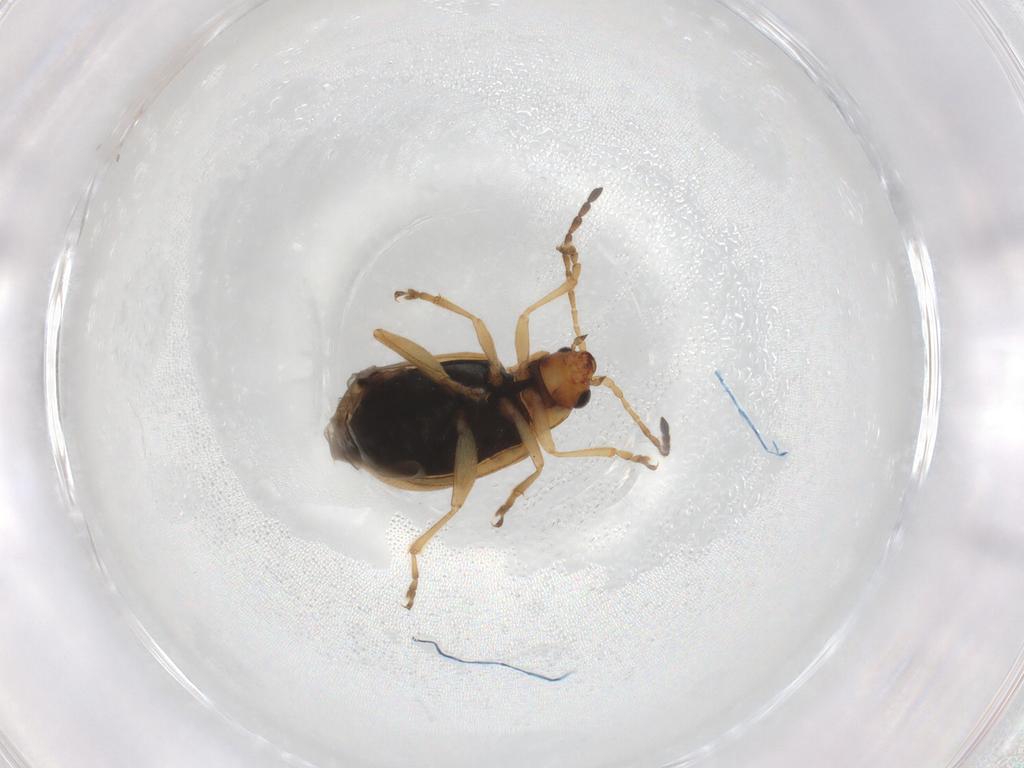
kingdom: Animalia
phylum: Arthropoda
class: Insecta
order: Coleoptera
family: Chrysomelidae
